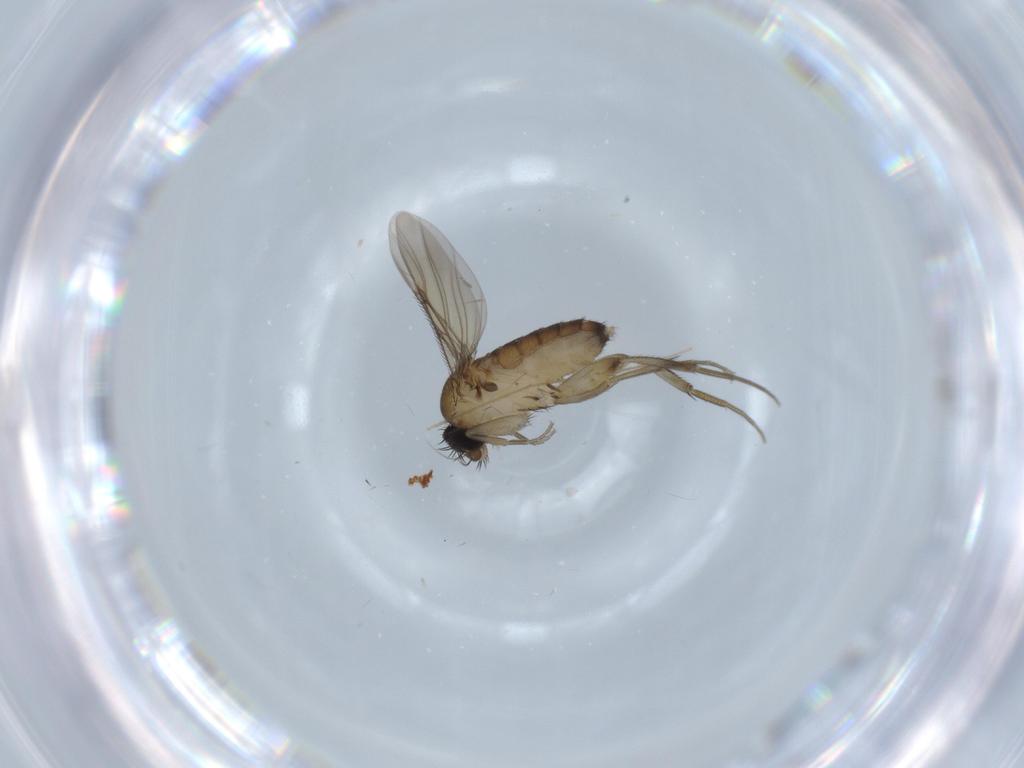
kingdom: Animalia
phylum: Arthropoda
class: Insecta
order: Diptera
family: Phoridae
